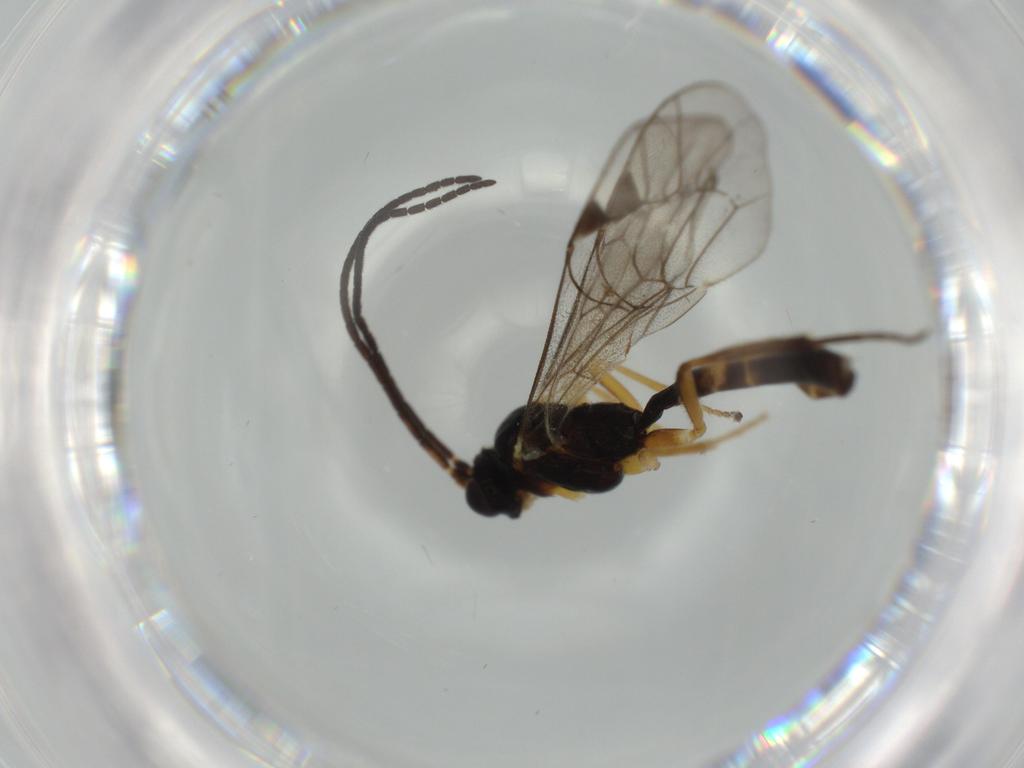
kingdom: Animalia
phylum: Arthropoda
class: Insecta
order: Hymenoptera
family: Ichneumonidae
